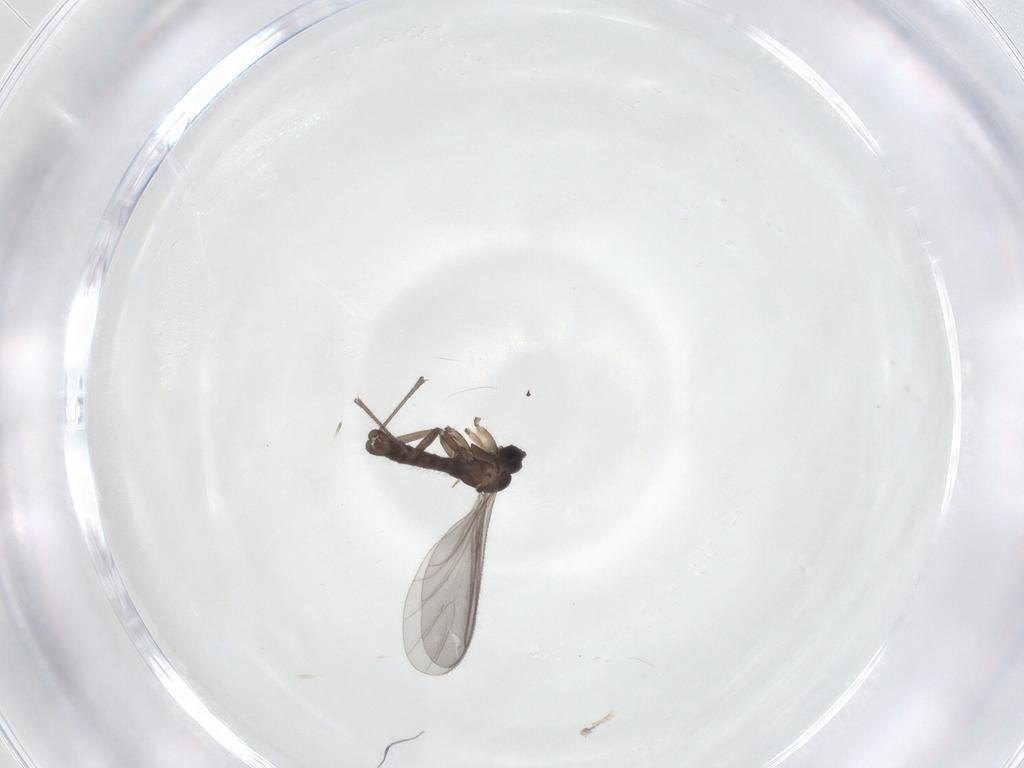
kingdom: Animalia
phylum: Arthropoda
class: Insecta
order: Diptera
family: Sciaridae
